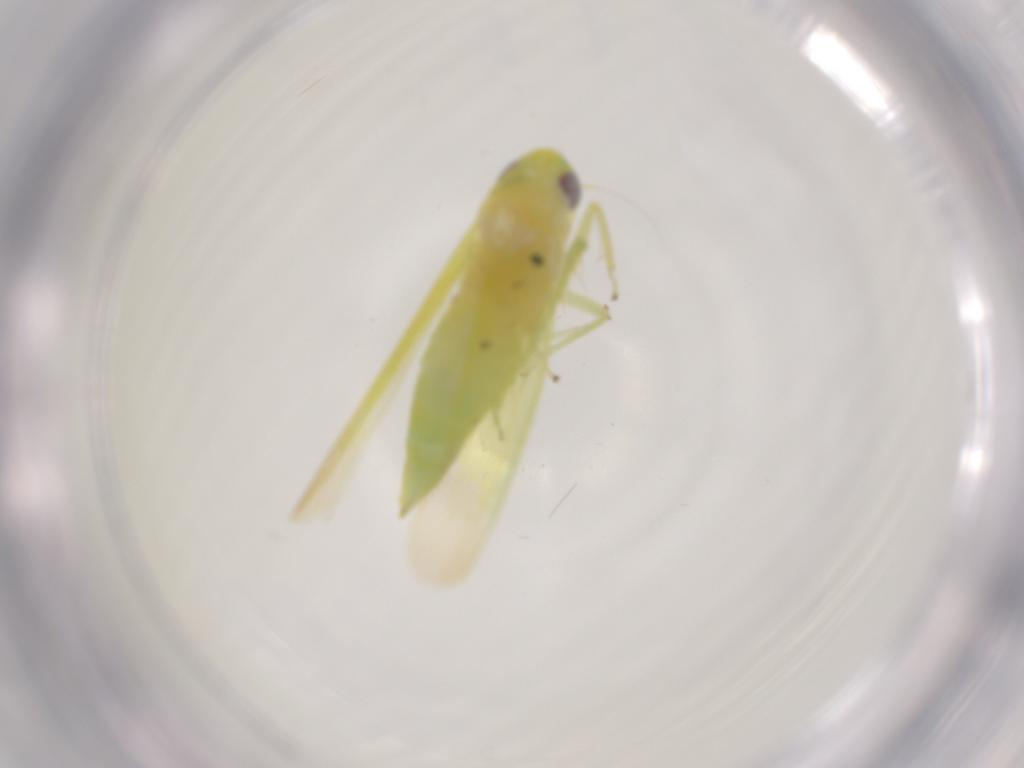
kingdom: Animalia
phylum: Arthropoda
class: Insecta
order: Hemiptera
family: Cicadellidae
